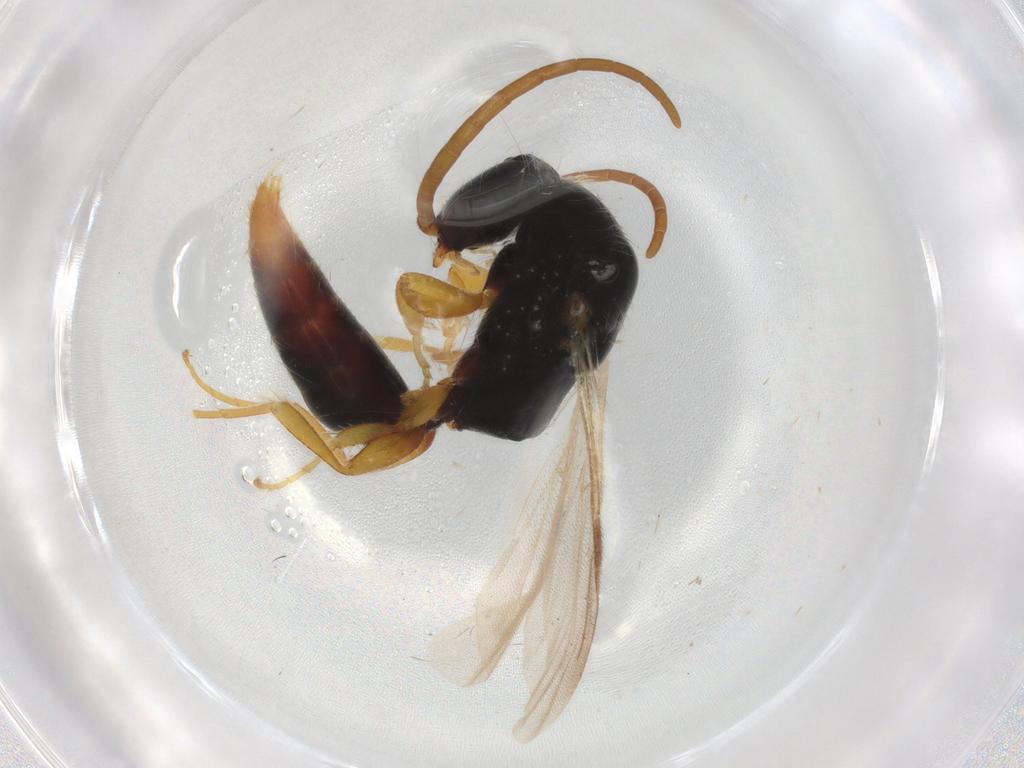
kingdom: Animalia
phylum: Arthropoda
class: Insecta
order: Hymenoptera
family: Bethylidae
